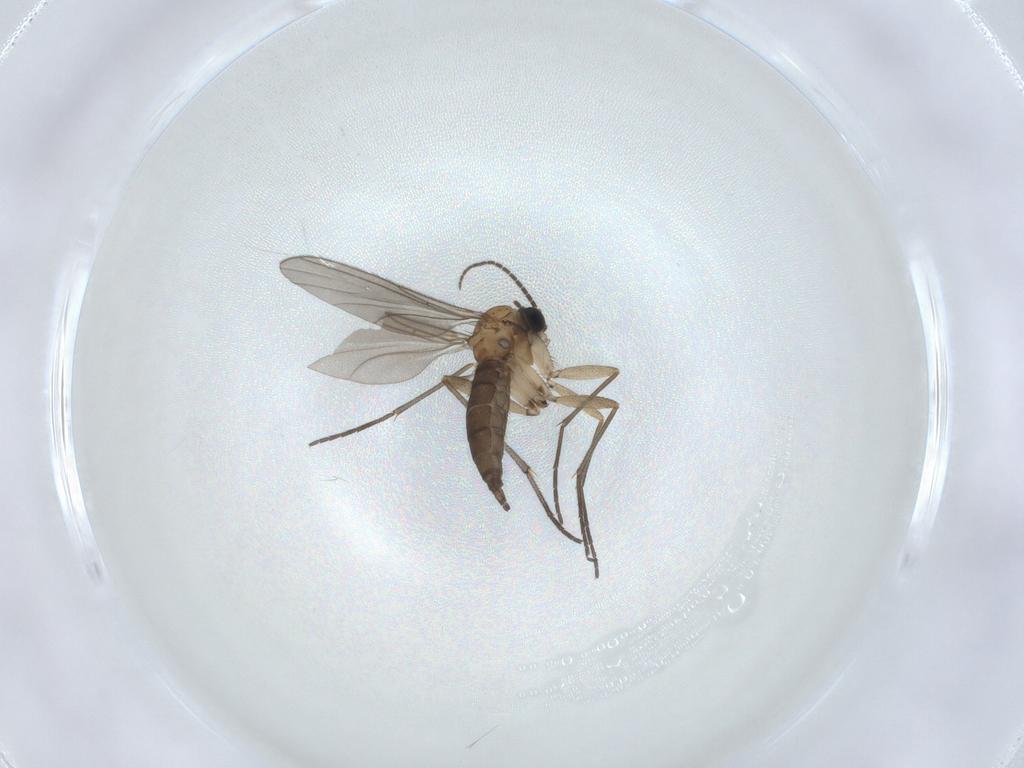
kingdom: Animalia
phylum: Arthropoda
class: Insecta
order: Diptera
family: Sciaridae
